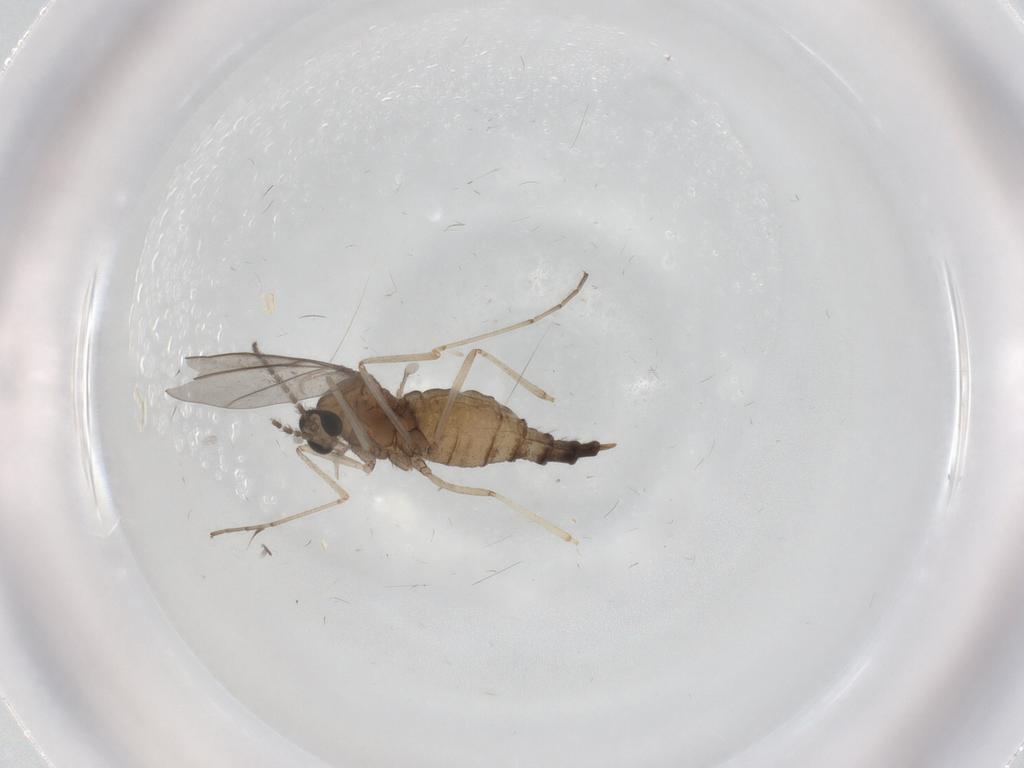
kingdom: Animalia
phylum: Arthropoda
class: Insecta
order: Diptera
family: Cecidomyiidae
